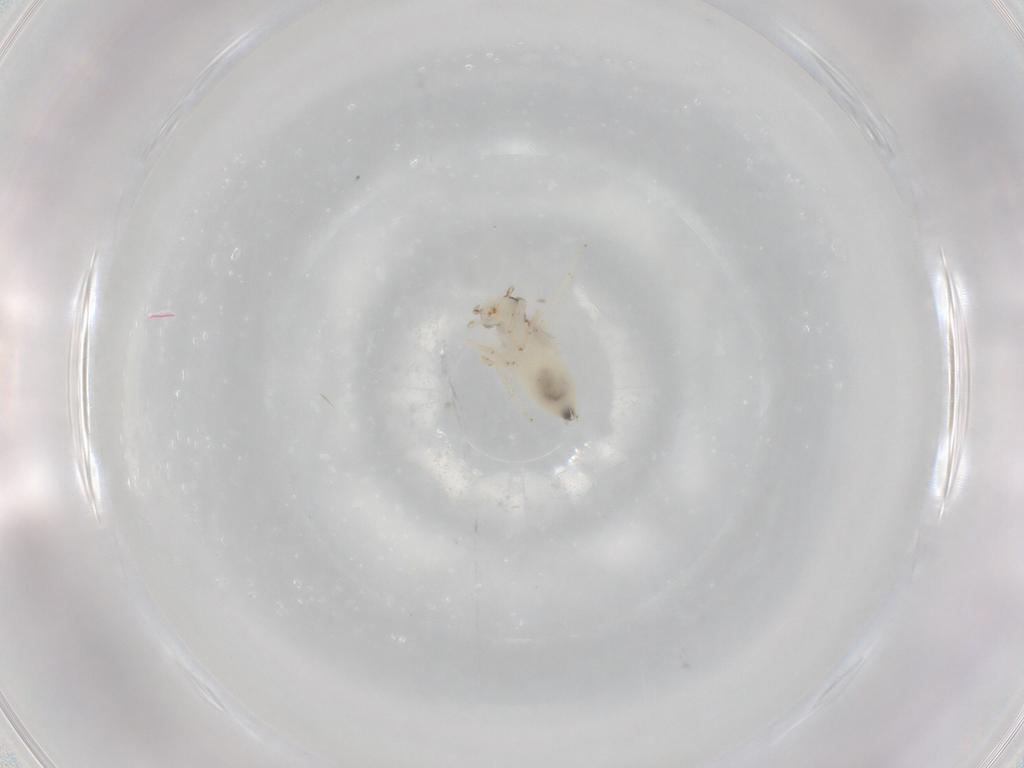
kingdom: Animalia
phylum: Arthropoda
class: Insecta
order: Psocodea
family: Lepidopsocidae
